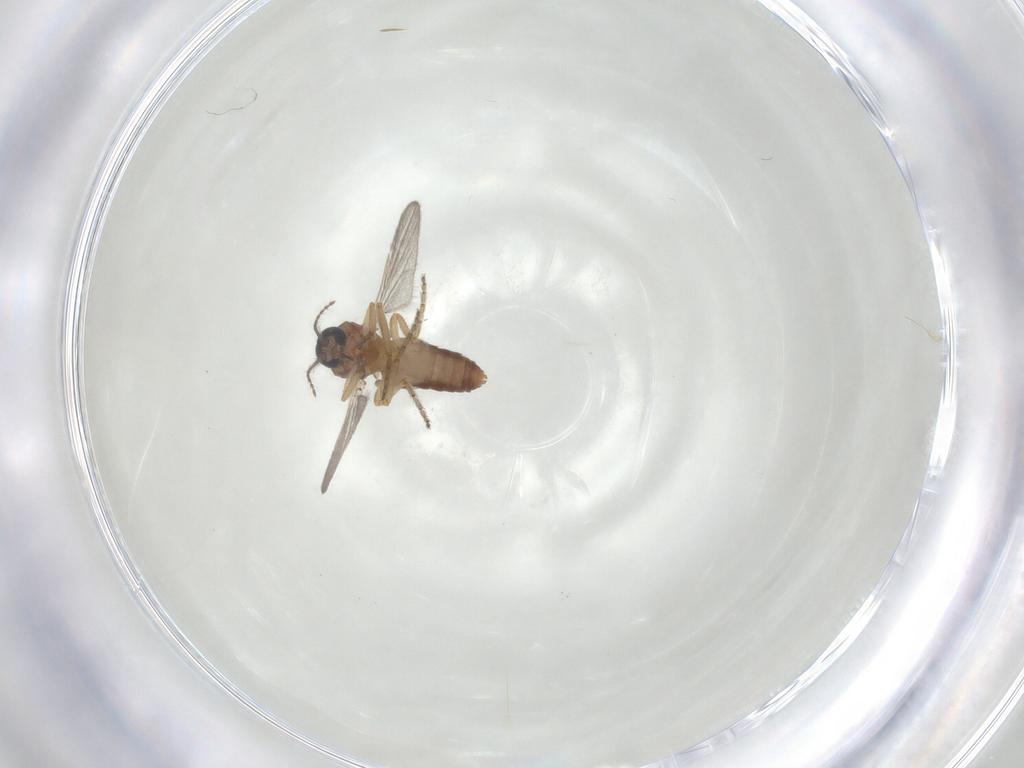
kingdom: Animalia
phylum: Arthropoda
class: Insecta
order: Diptera
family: Ceratopogonidae
